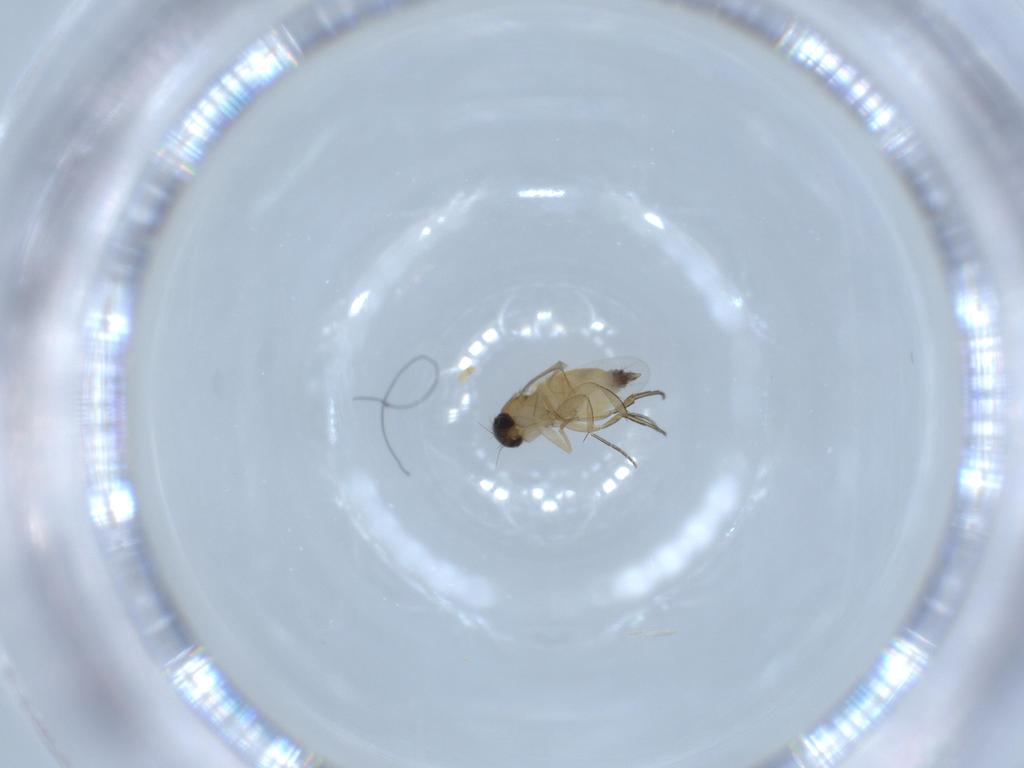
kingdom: Animalia
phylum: Arthropoda
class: Insecta
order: Diptera
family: Phoridae
